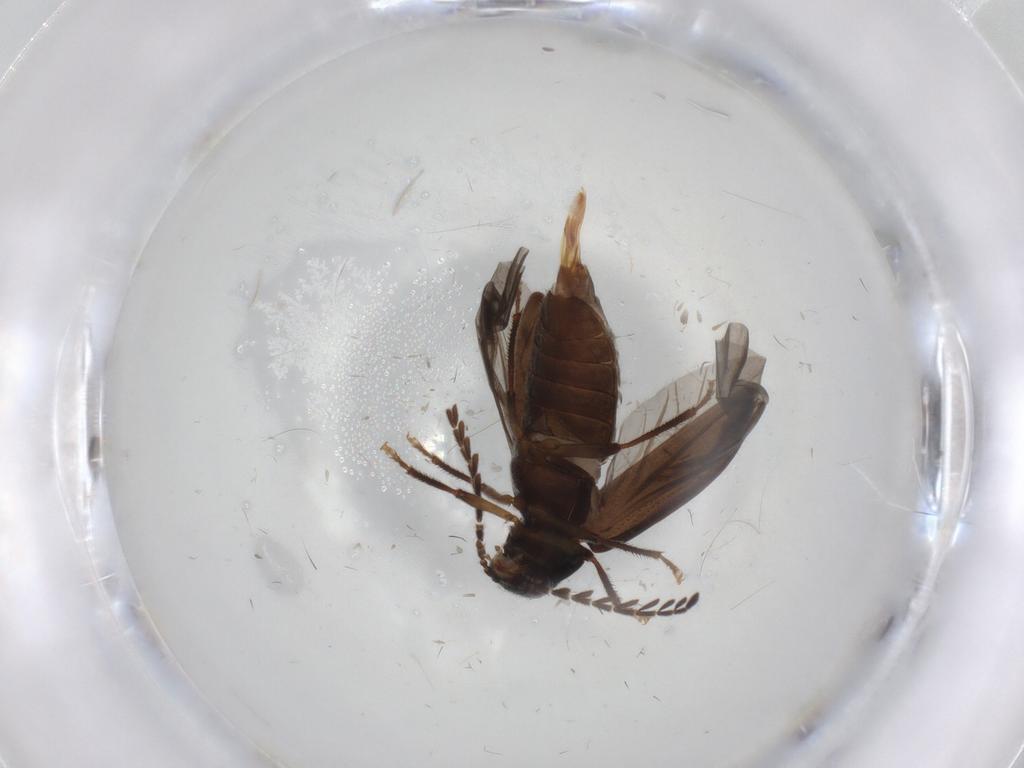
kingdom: Animalia
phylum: Arthropoda
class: Insecta
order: Coleoptera
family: Ptilodactylidae
